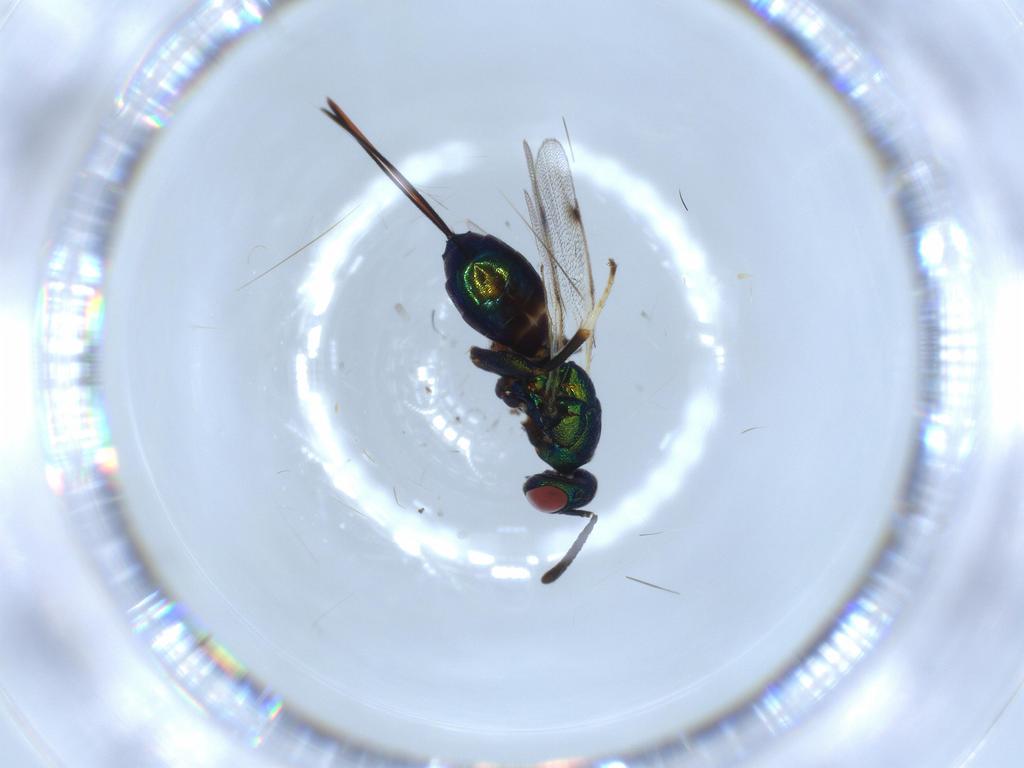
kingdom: Animalia
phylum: Arthropoda
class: Insecta
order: Hymenoptera
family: Torymidae
